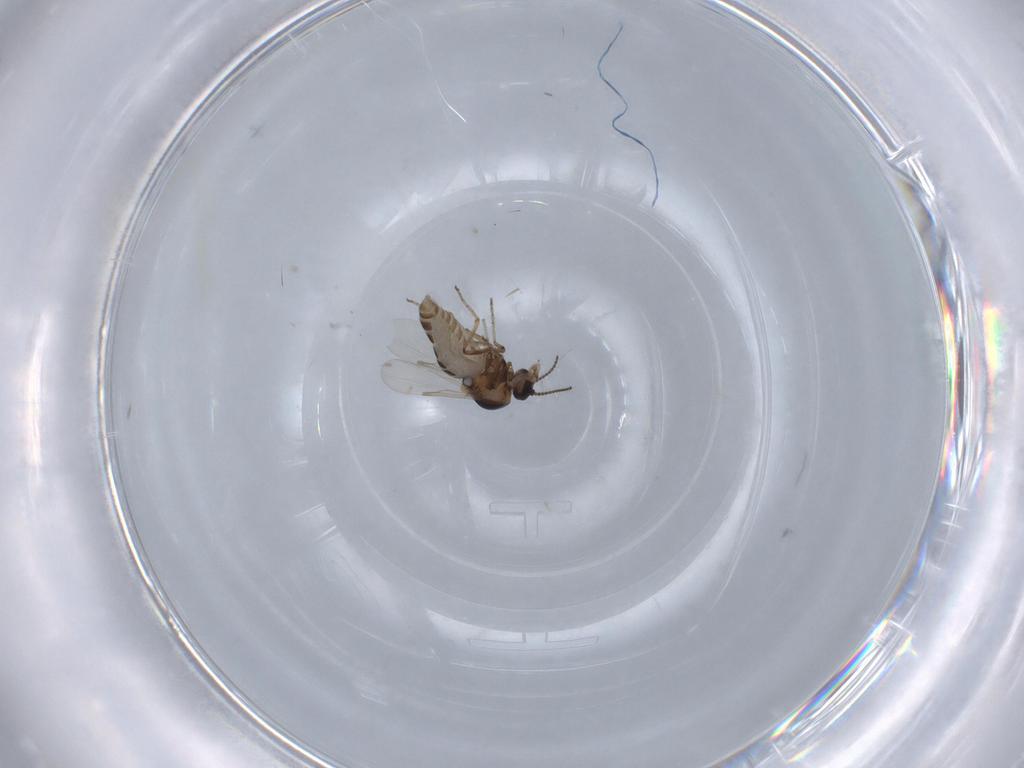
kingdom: Animalia
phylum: Arthropoda
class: Insecta
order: Diptera
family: Ceratopogonidae
